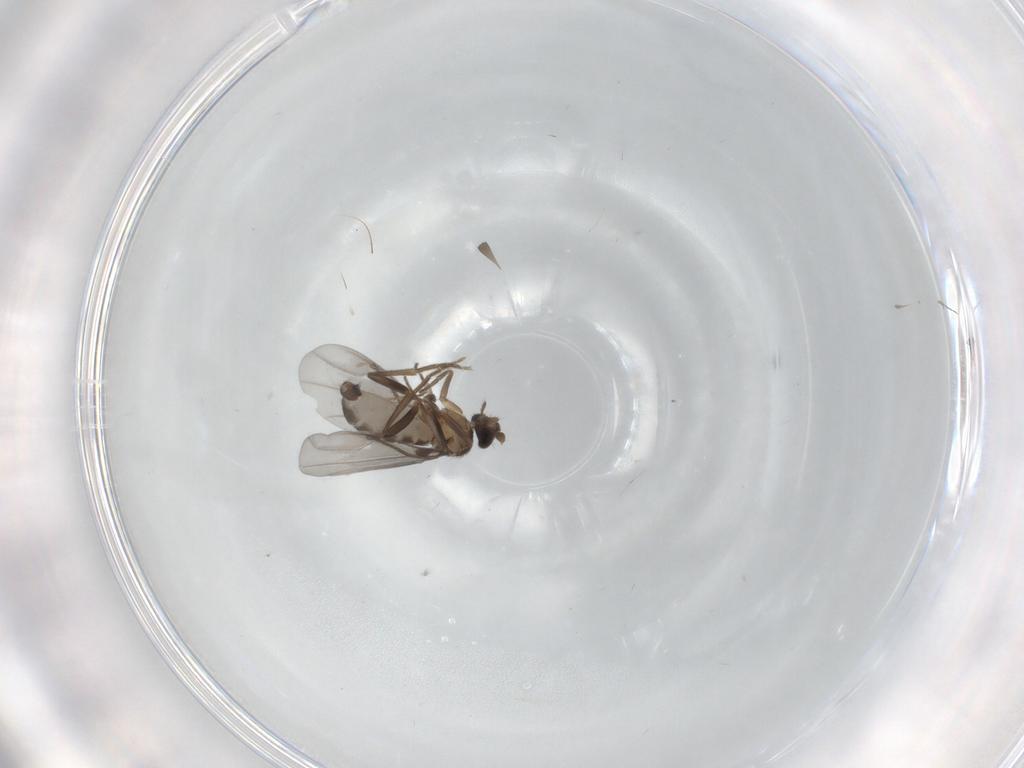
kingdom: Animalia
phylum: Arthropoda
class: Insecta
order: Diptera
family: Phoridae
